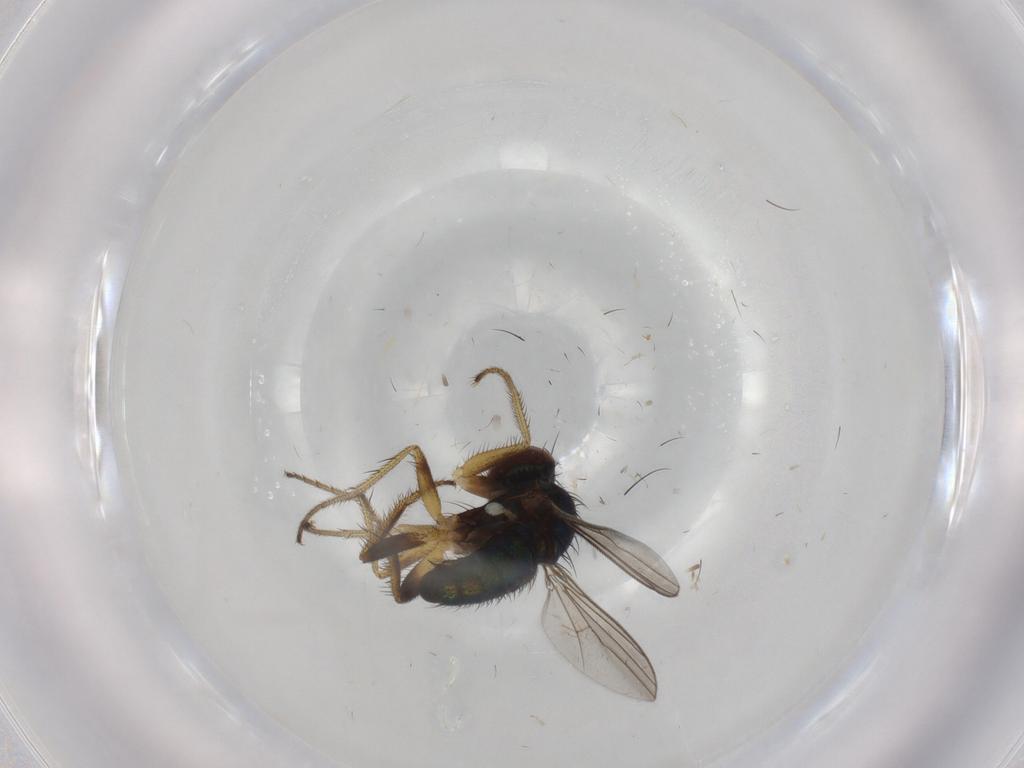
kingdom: Animalia
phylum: Arthropoda
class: Insecta
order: Diptera
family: Dolichopodidae
